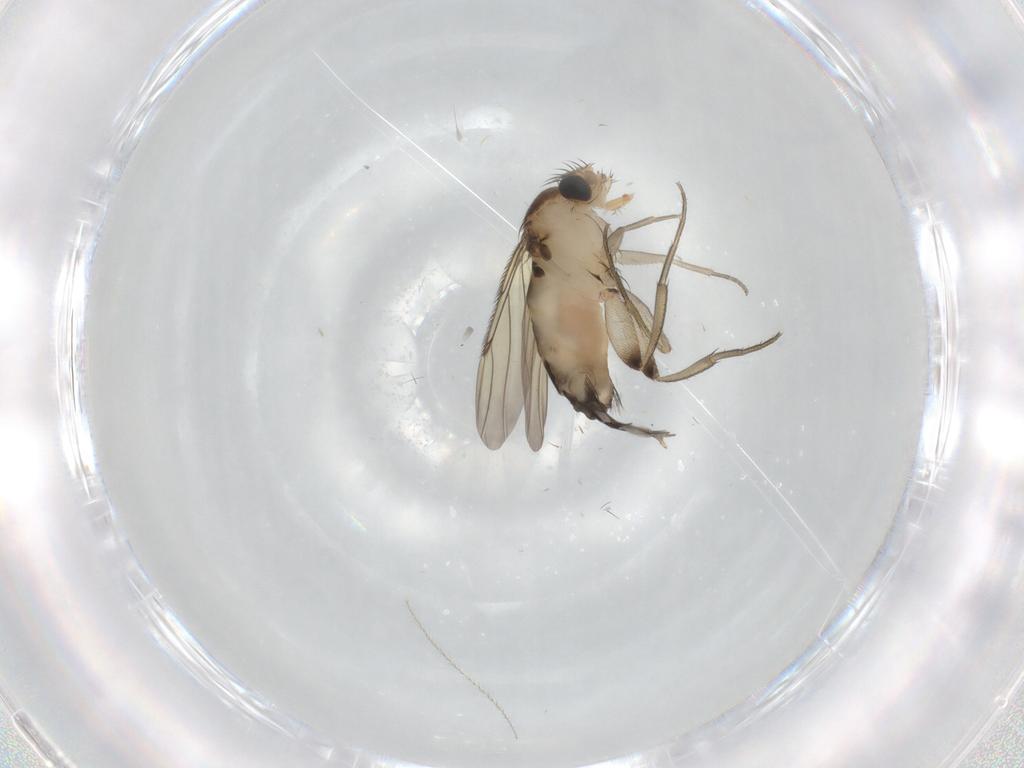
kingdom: Animalia
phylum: Arthropoda
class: Insecta
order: Diptera
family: Phoridae
